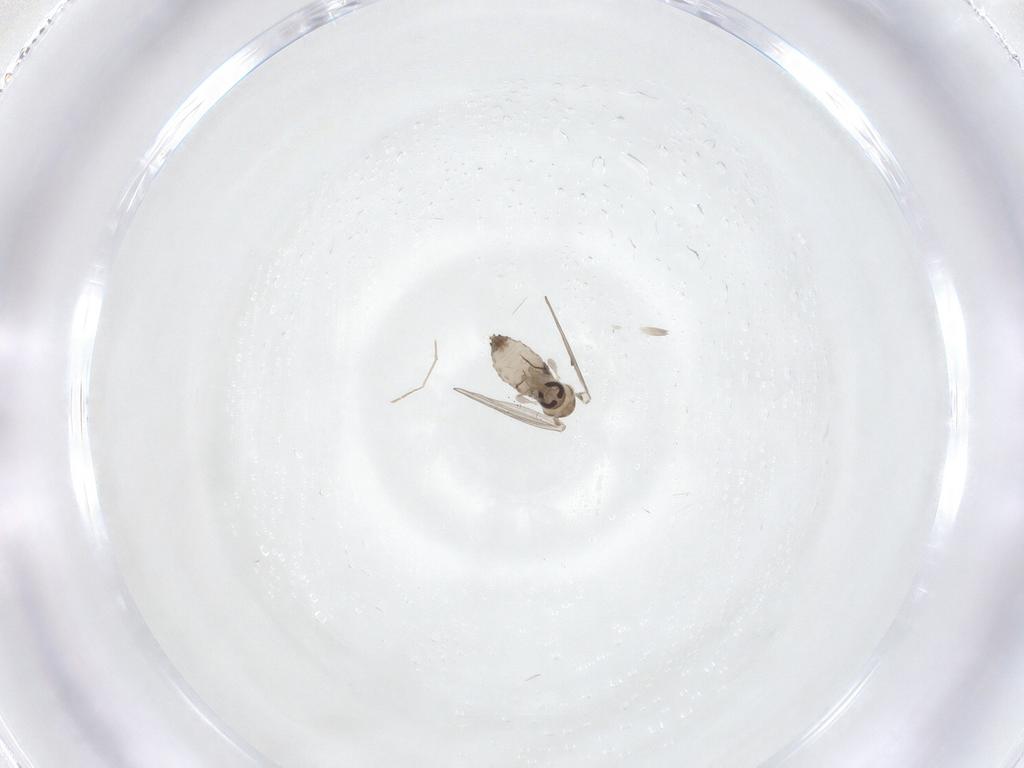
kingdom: Animalia
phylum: Arthropoda
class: Insecta
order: Diptera
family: Psychodidae
